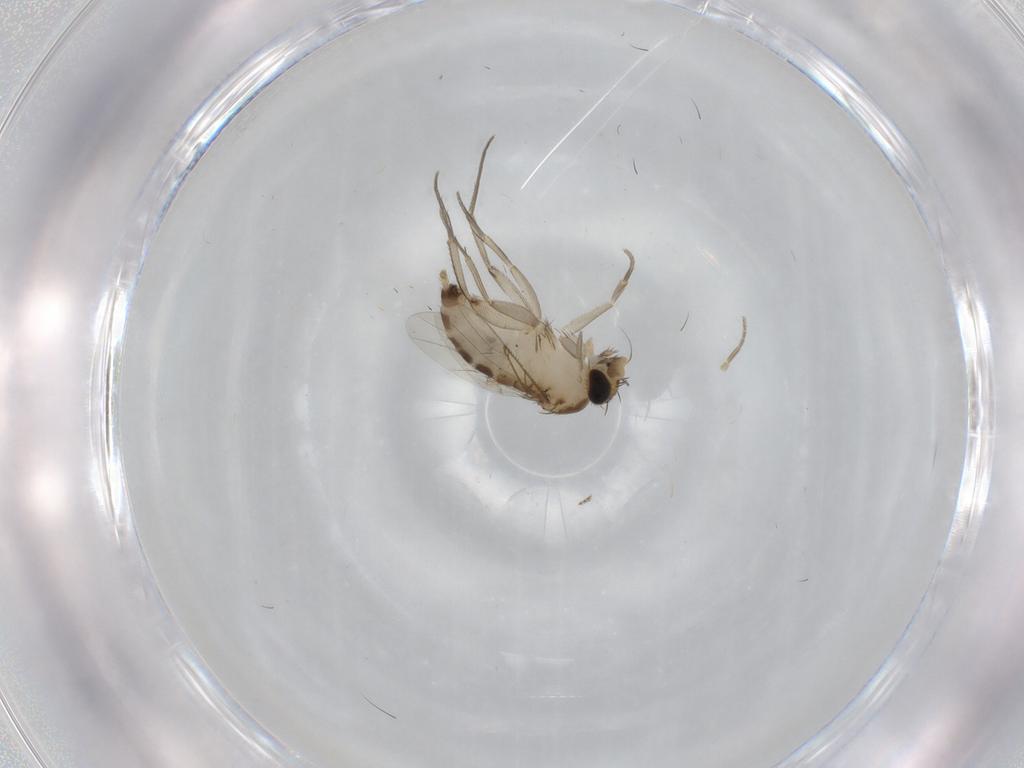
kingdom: Animalia
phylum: Arthropoda
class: Insecta
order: Diptera
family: Phoridae
